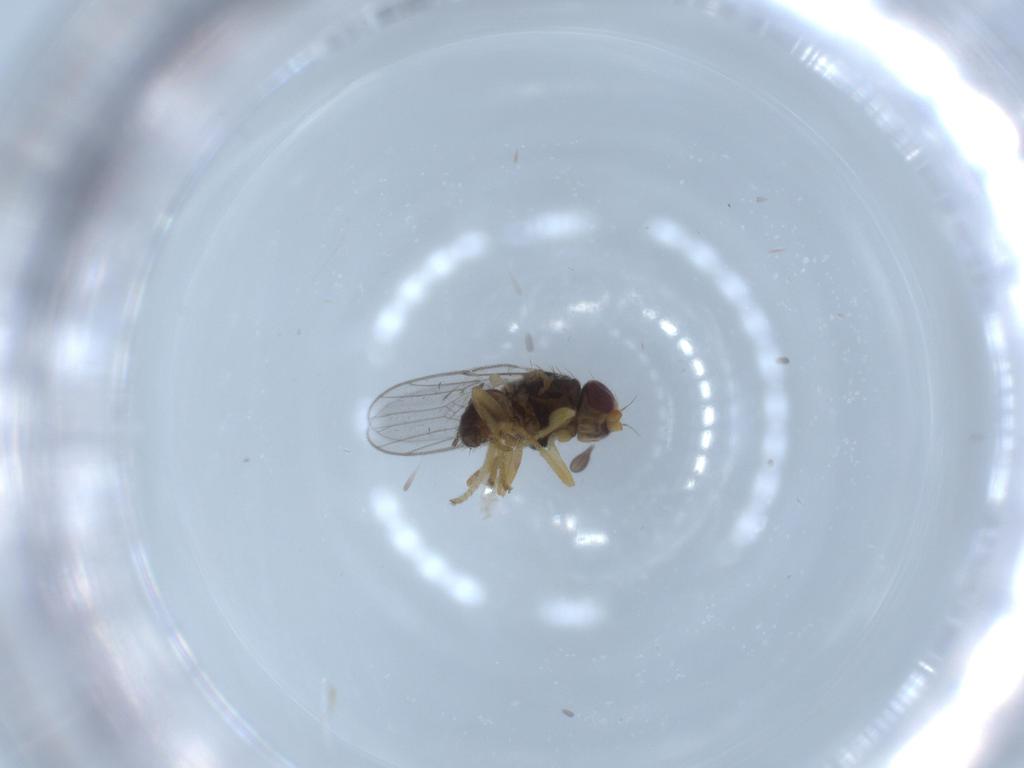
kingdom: Animalia
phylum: Arthropoda
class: Insecta
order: Diptera
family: Chloropidae
